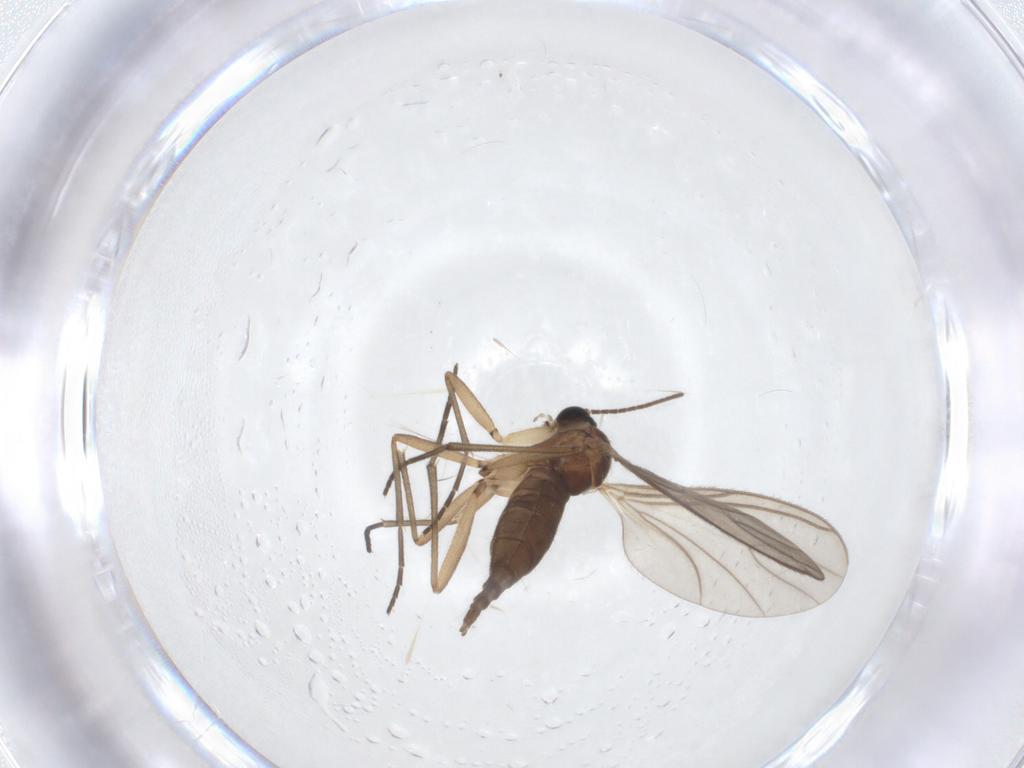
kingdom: Animalia
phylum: Arthropoda
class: Insecta
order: Diptera
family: Sciaridae
